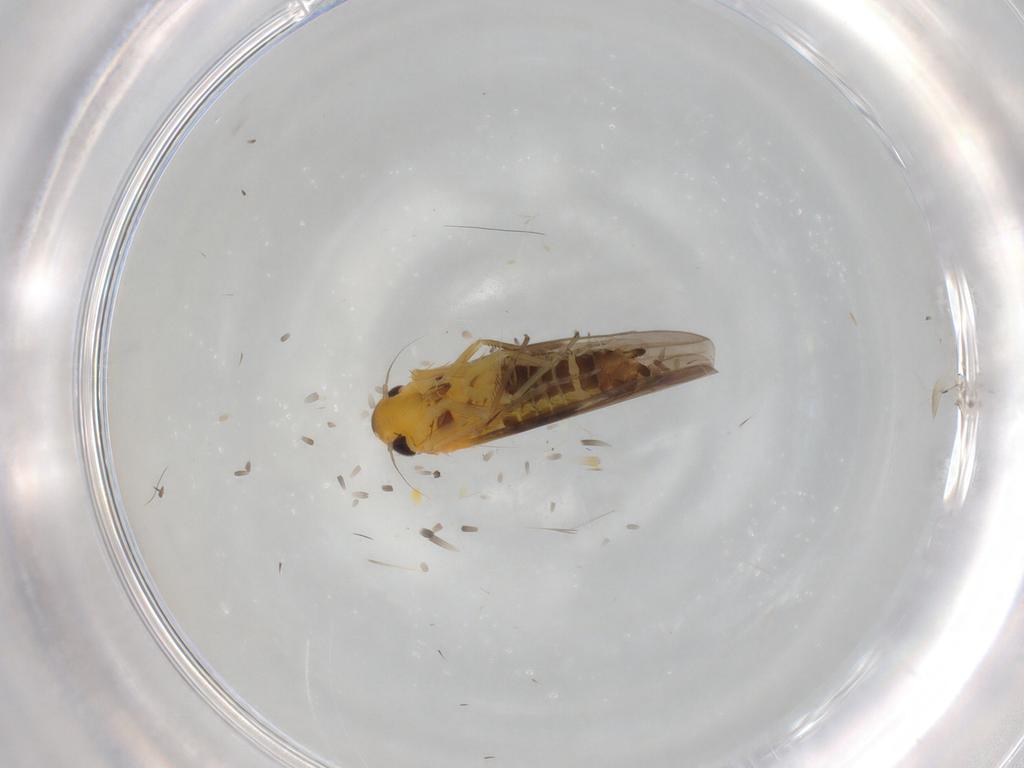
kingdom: Animalia
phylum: Arthropoda
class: Insecta
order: Hemiptera
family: Cicadellidae
